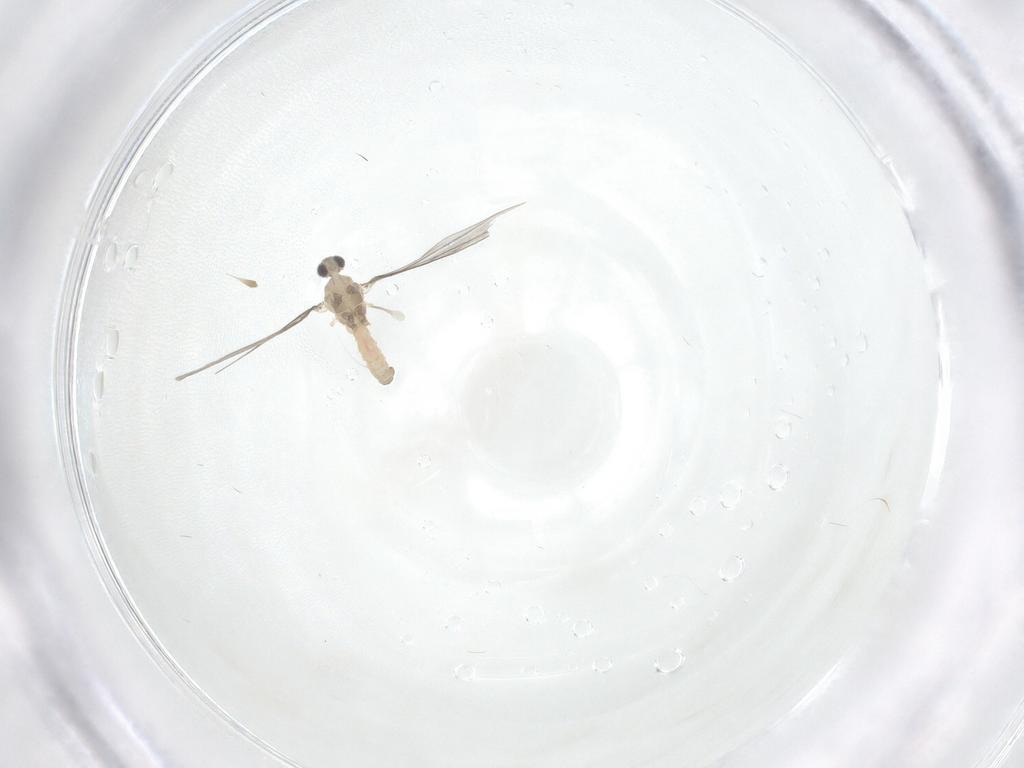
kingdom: Animalia
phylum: Arthropoda
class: Insecta
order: Diptera
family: Cecidomyiidae
